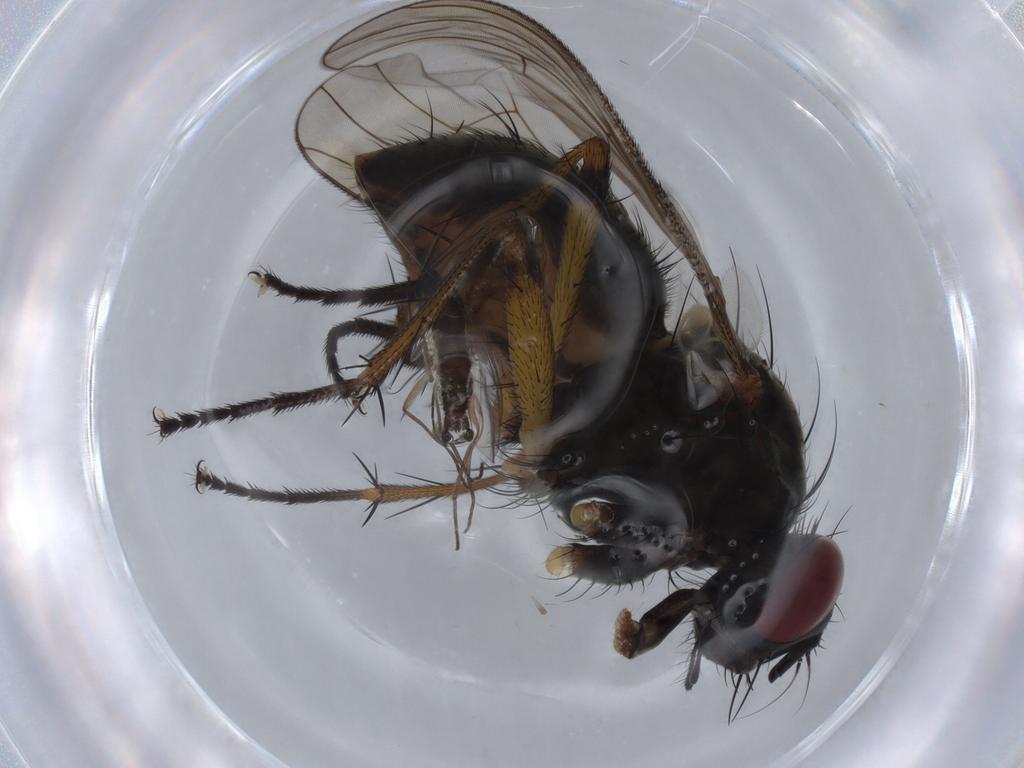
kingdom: Animalia
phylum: Arthropoda
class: Insecta
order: Diptera
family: Muscidae
